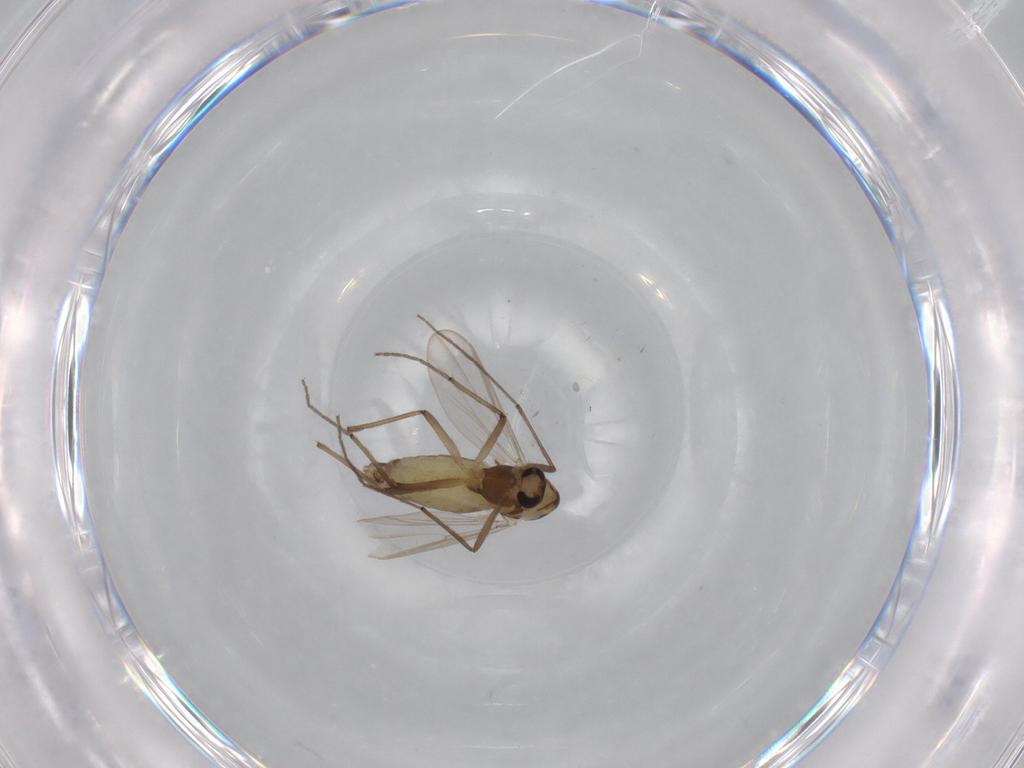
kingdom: Animalia
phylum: Arthropoda
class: Insecta
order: Diptera
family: Chironomidae
